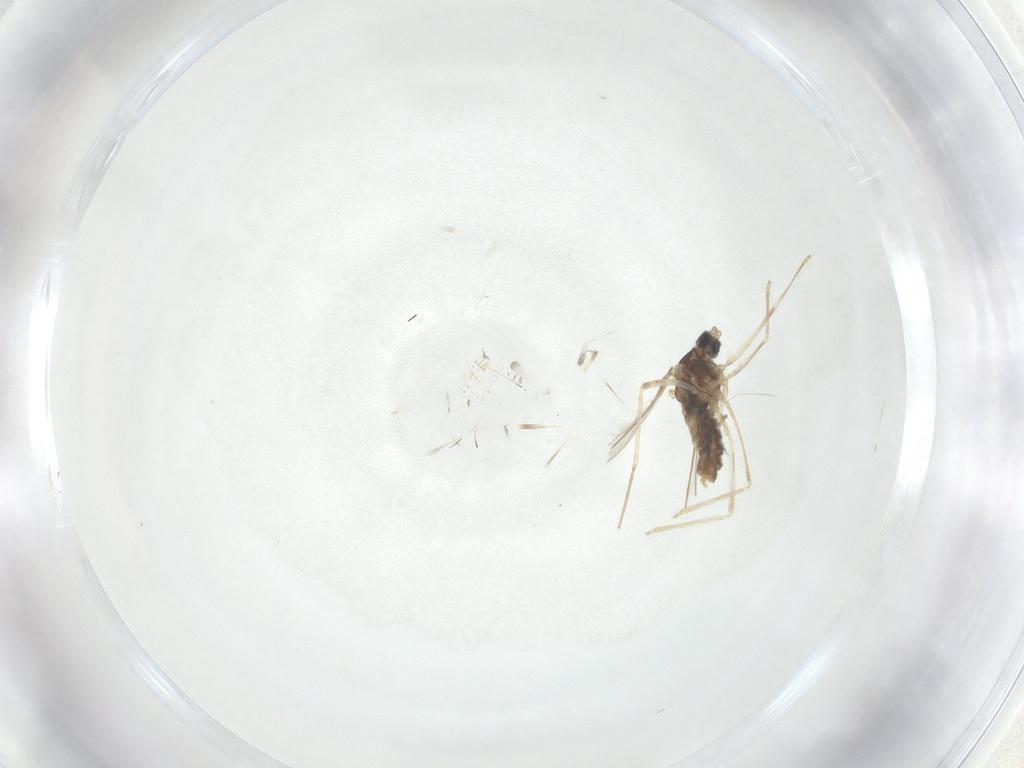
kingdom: Animalia
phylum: Arthropoda
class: Insecta
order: Diptera
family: Cecidomyiidae
